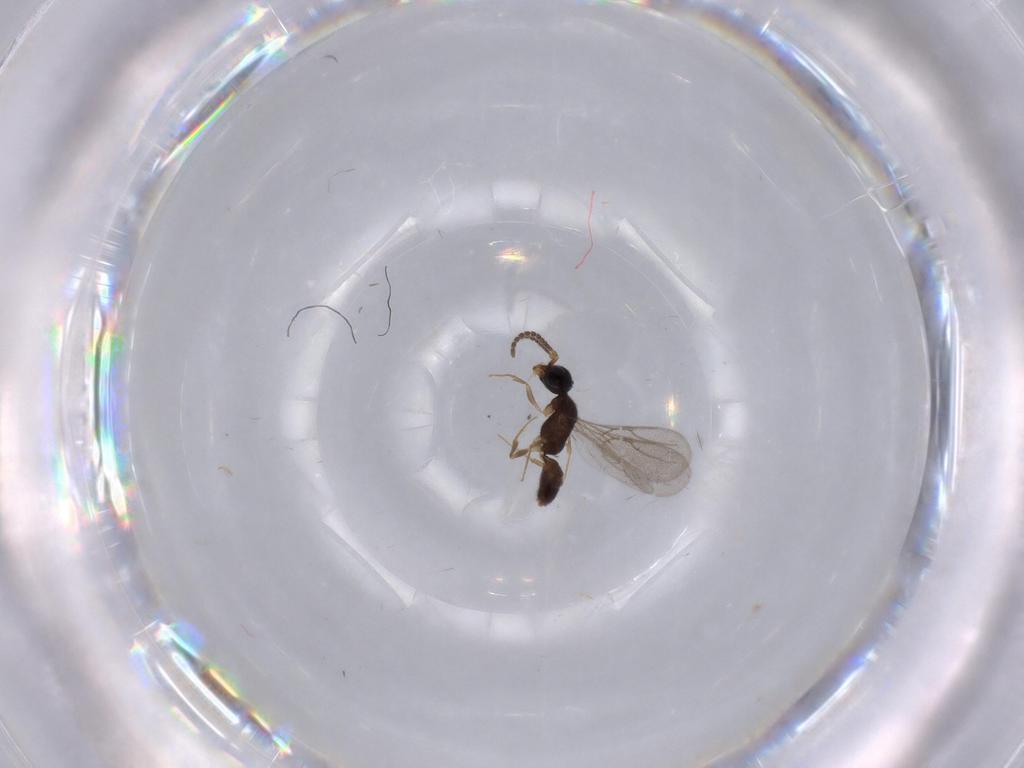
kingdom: Animalia
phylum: Arthropoda
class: Insecta
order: Hymenoptera
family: Bethylidae
